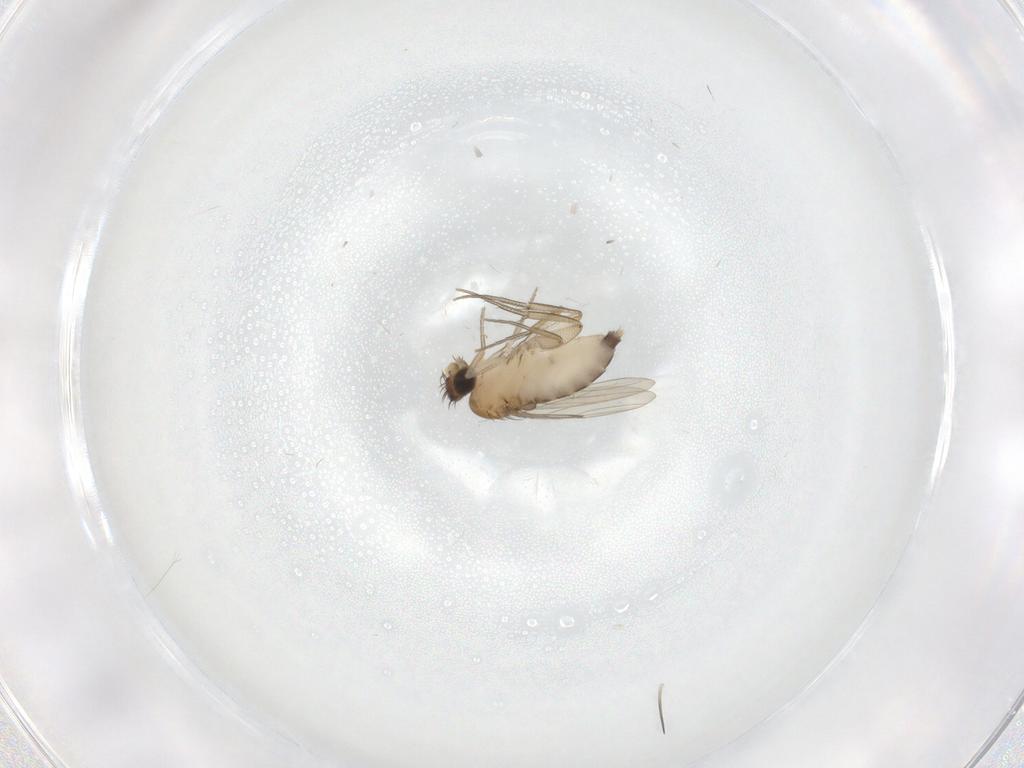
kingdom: Animalia
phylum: Arthropoda
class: Insecta
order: Diptera
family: Phoridae
